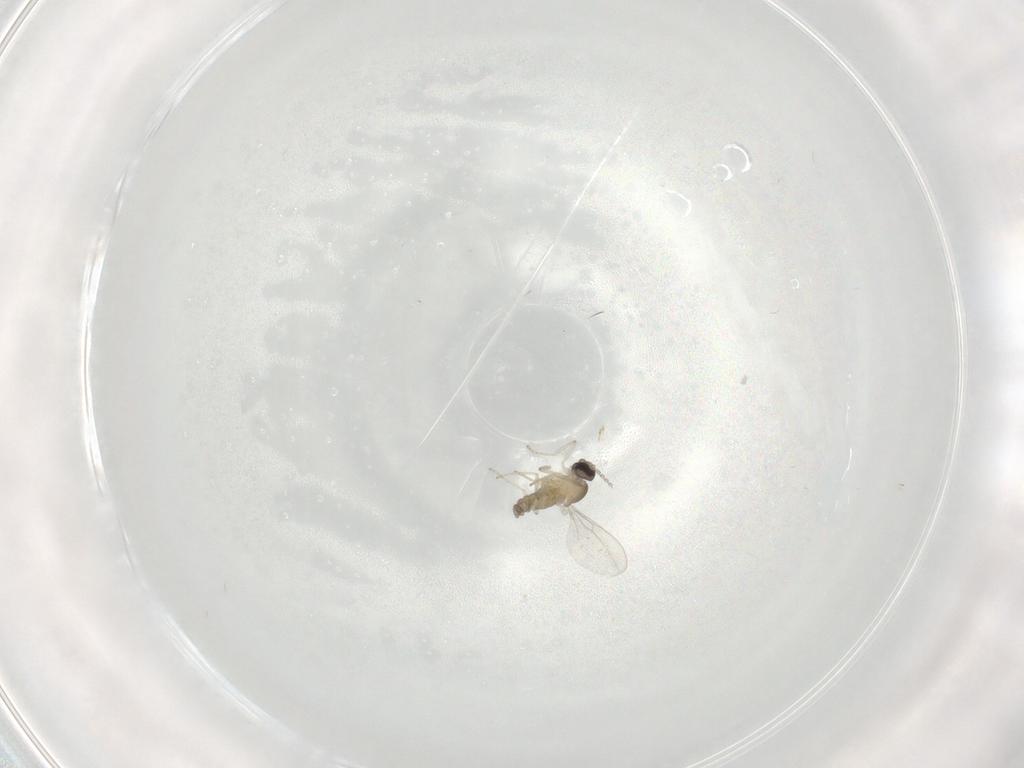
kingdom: Animalia
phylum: Arthropoda
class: Insecta
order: Diptera
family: Cecidomyiidae
